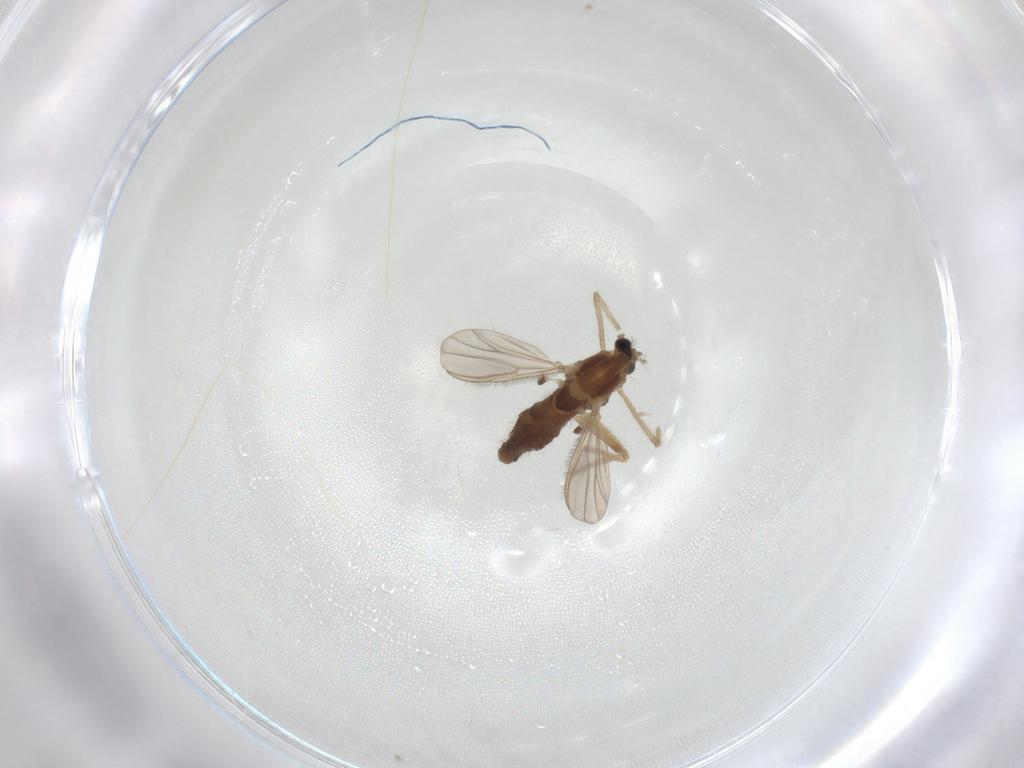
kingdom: Animalia
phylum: Arthropoda
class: Insecta
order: Diptera
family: Chironomidae
